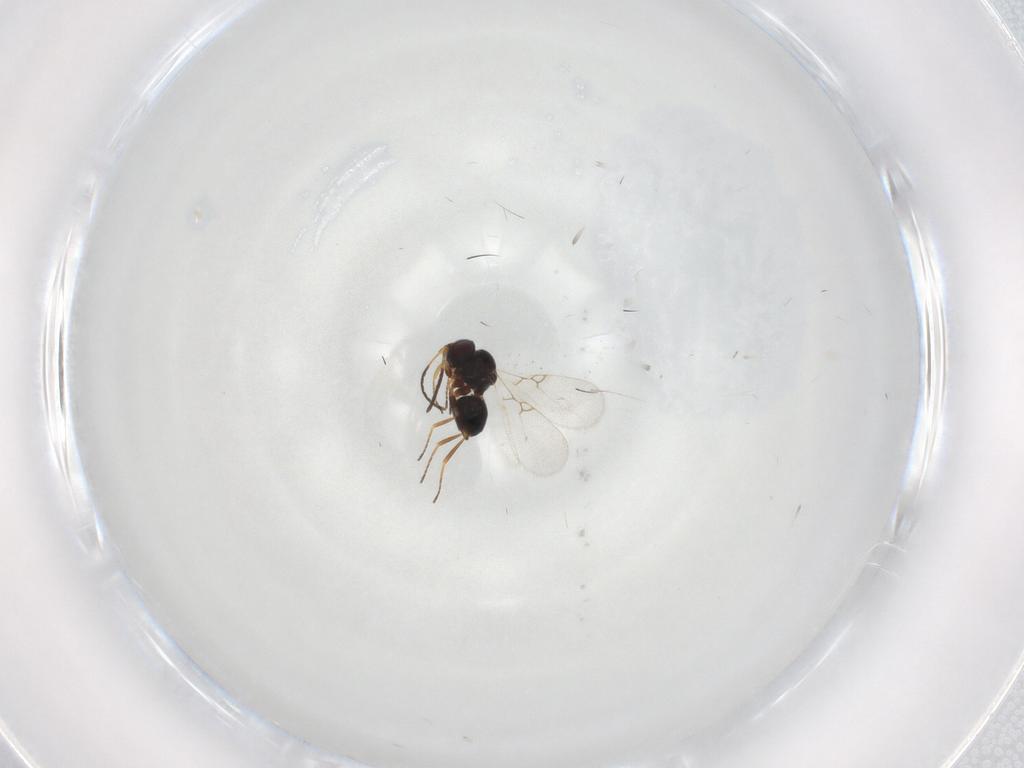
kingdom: Animalia
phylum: Arthropoda
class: Insecta
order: Hymenoptera
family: Figitidae
